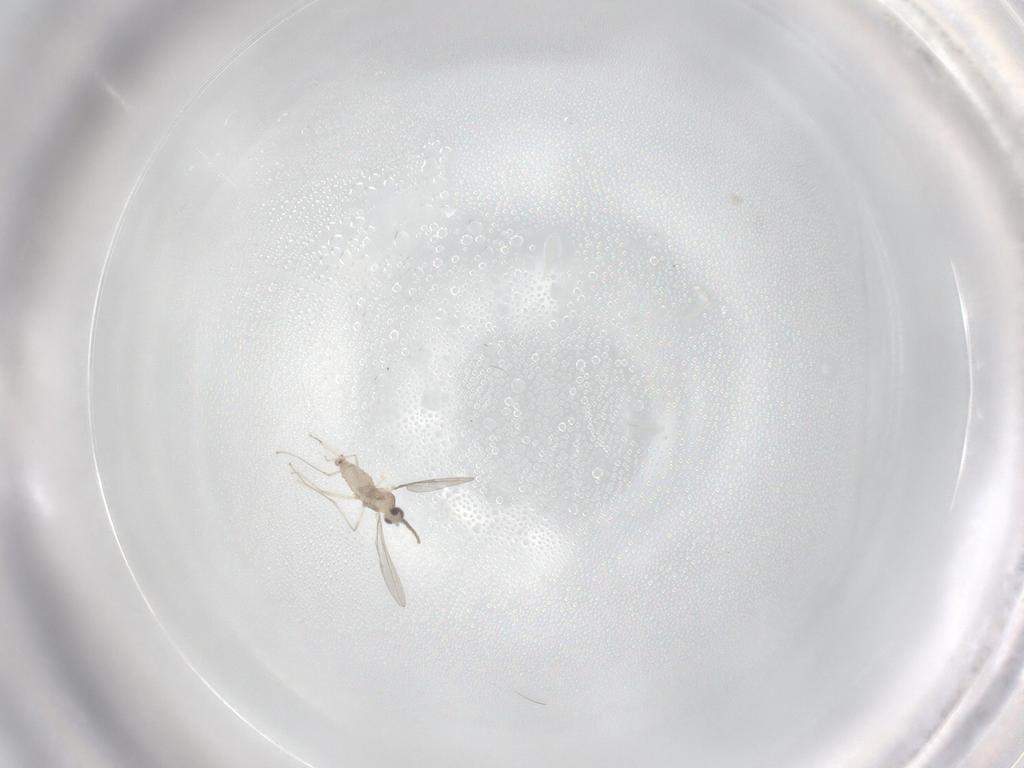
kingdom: Animalia
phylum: Arthropoda
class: Insecta
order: Diptera
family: Cecidomyiidae
